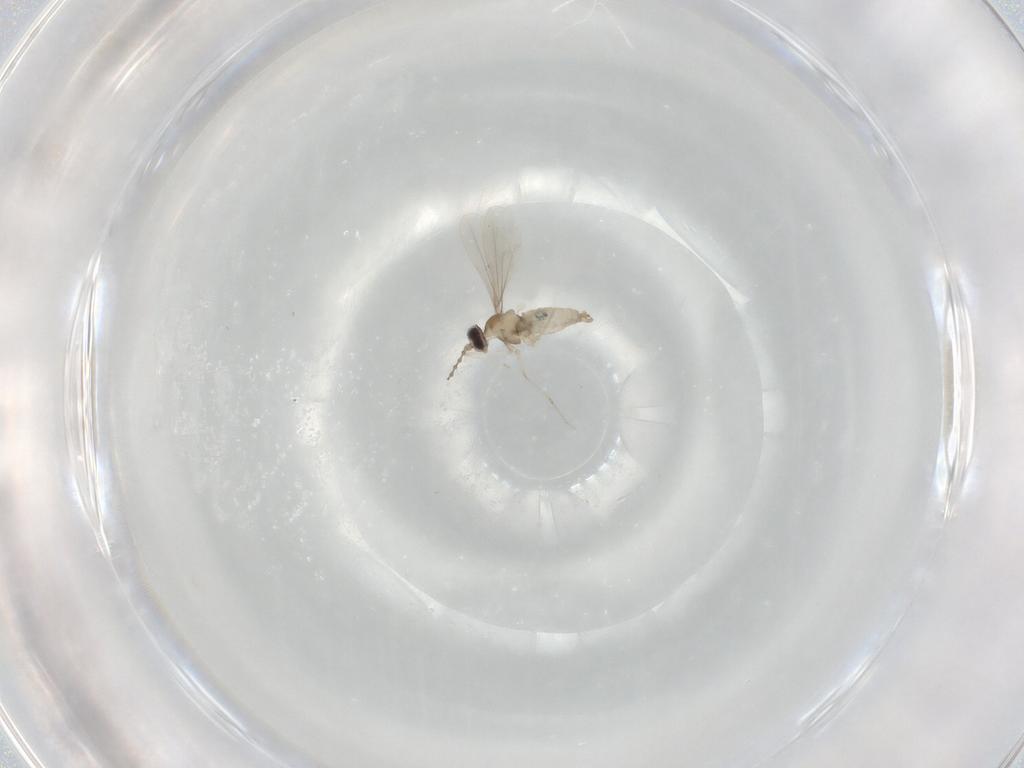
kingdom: Animalia
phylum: Arthropoda
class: Insecta
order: Diptera
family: Cecidomyiidae
